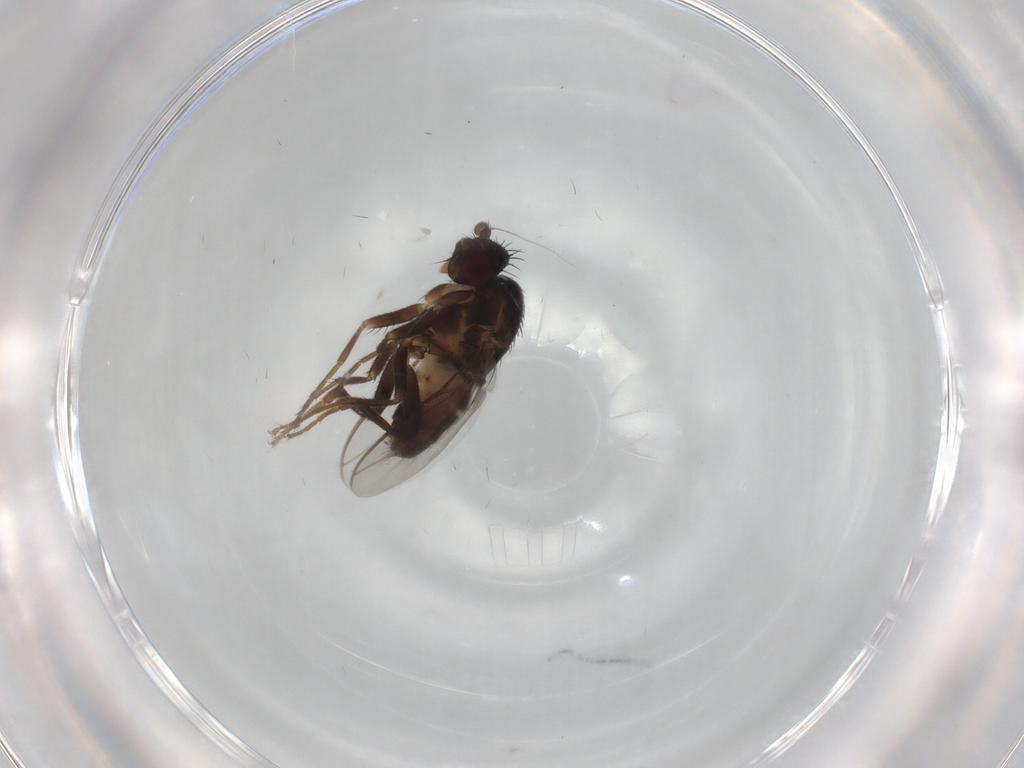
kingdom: Animalia
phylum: Arthropoda
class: Insecta
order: Diptera
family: Sphaeroceridae
